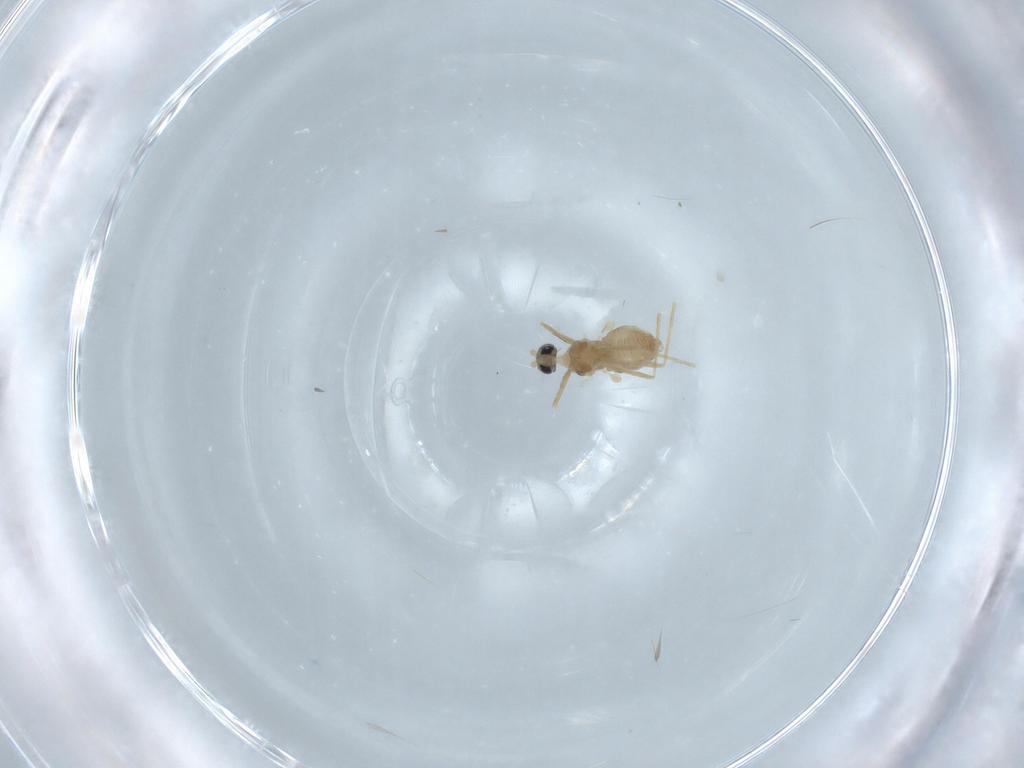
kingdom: Animalia
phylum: Arthropoda
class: Insecta
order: Diptera
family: Cecidomyiidae
